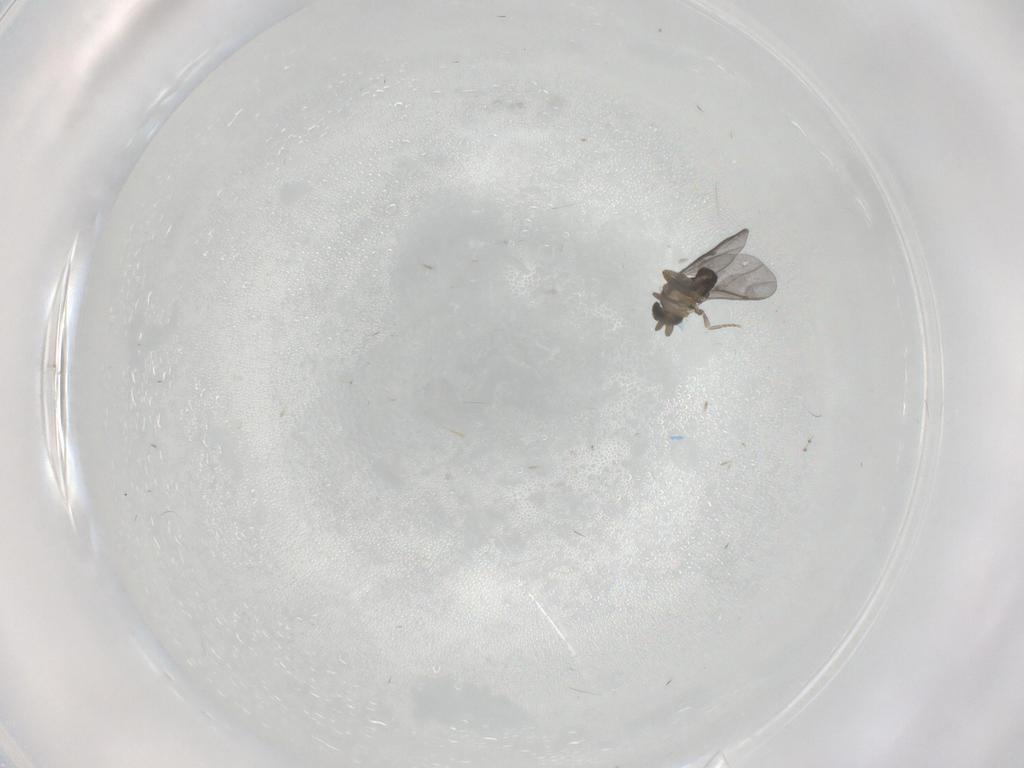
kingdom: Animalia
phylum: Arthropoda
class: Insecta
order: Diptera
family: Cecidomyiidae
